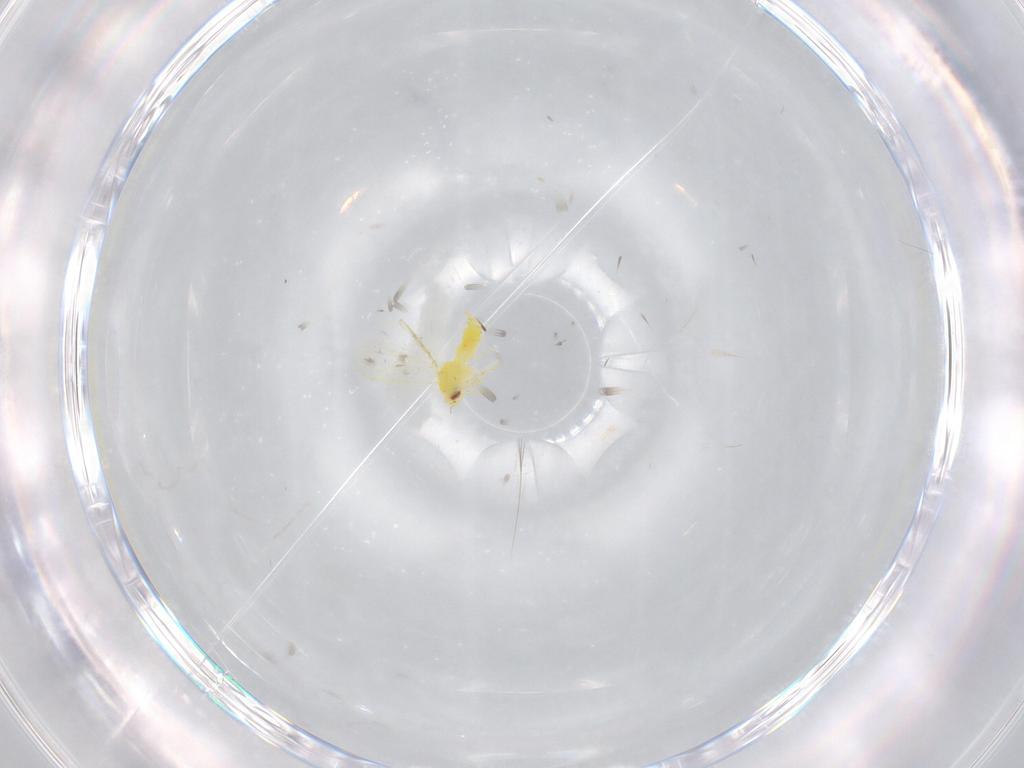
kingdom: Animalia
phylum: Arthropoda
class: Insecta
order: Hemiptera
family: Aleyrodidae
